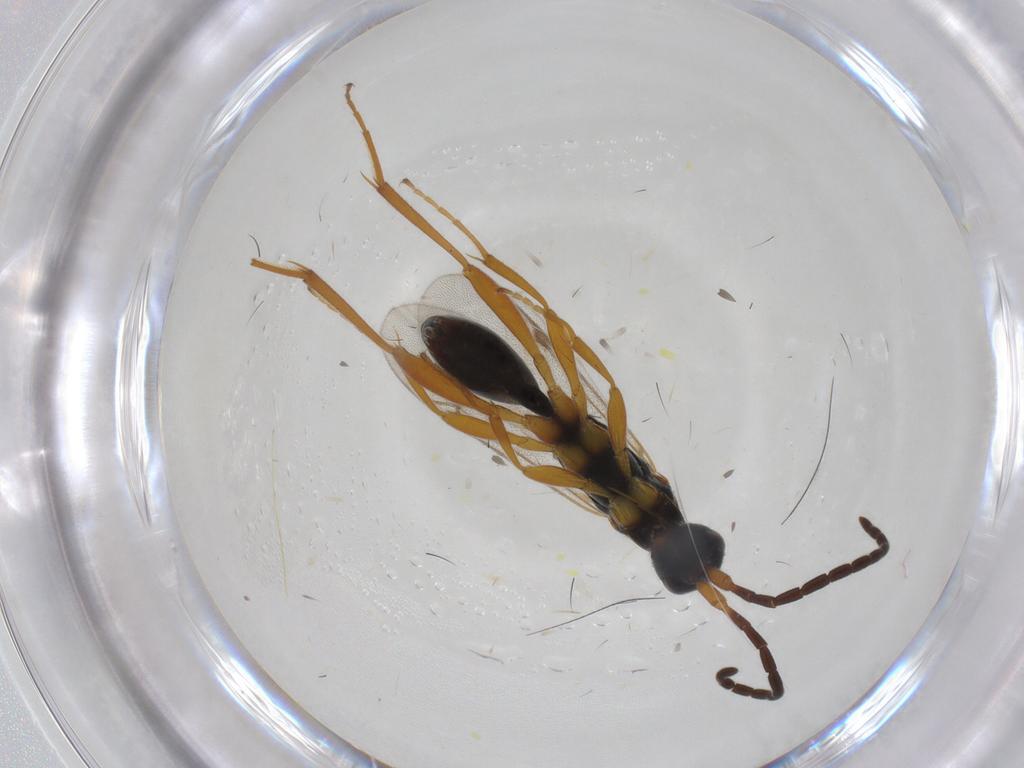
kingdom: Animalia
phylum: Arthropoda
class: Insecta
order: Hymenoptera
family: Proctotrupidae
